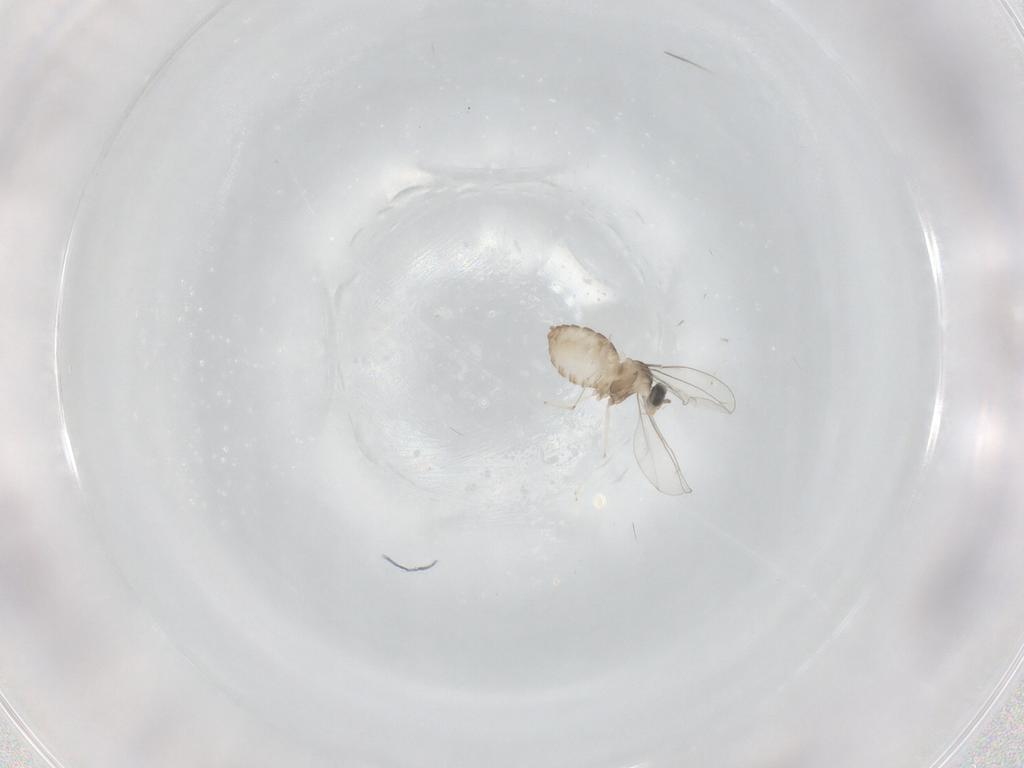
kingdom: Animalia
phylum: Arthropoda
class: Insecta
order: Diptera
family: Cecidomyiidae
